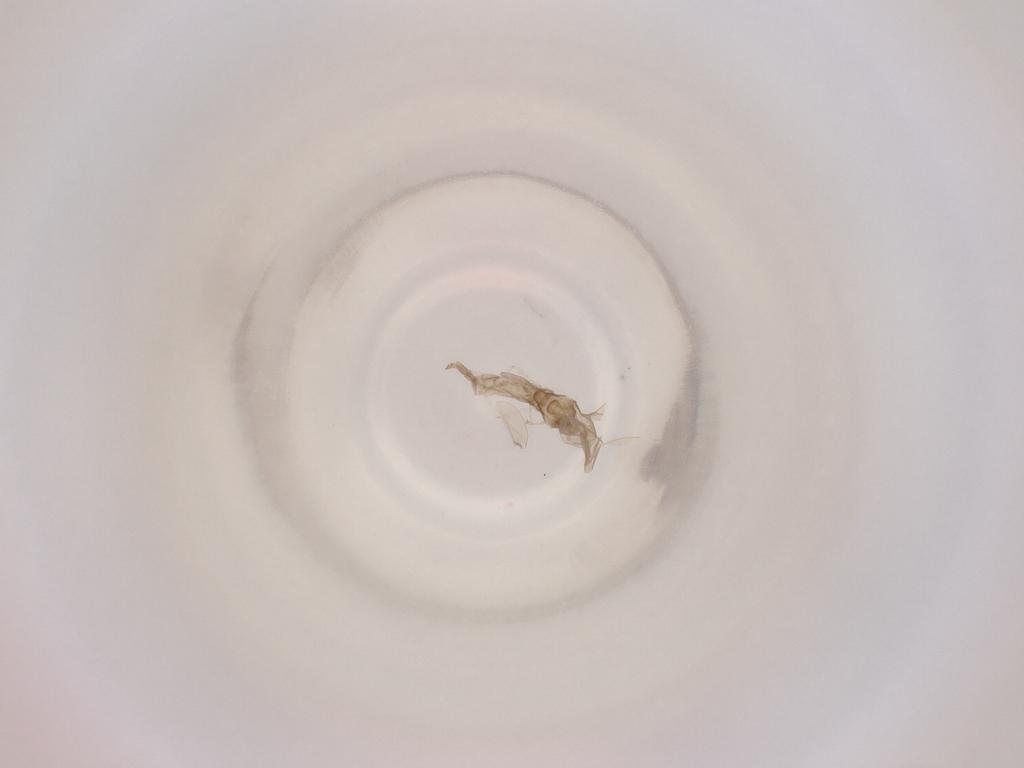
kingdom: Animalia
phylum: Arthropoda
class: Insecta
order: Diptera
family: Cecidomyiidae
